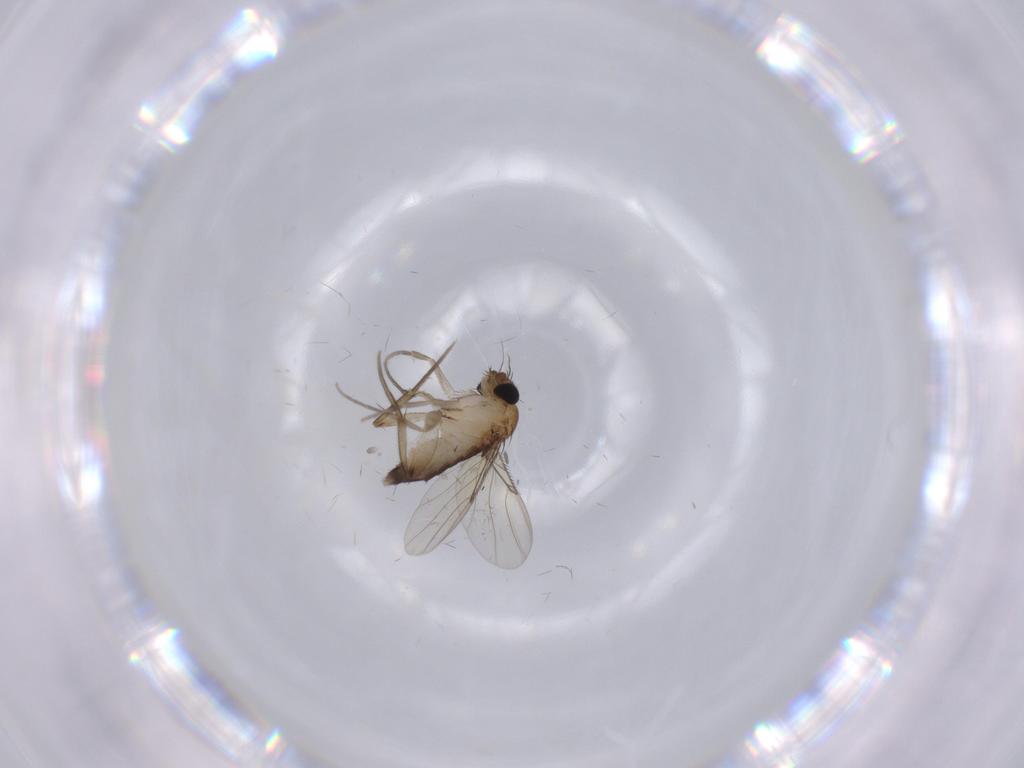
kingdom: Animalia
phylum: Arthropoda
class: Insecta
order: Diptera
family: Phoridae
